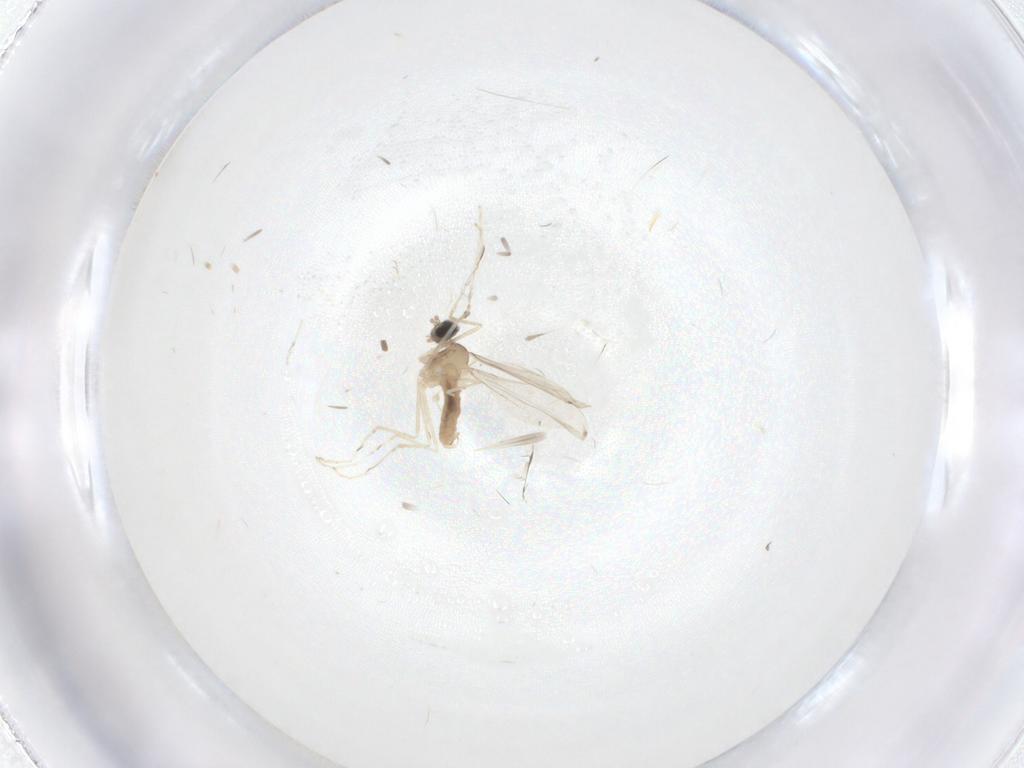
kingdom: Animalia
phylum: Arthropoda
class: Insecta
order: Diptera
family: Cecidomyiidae
